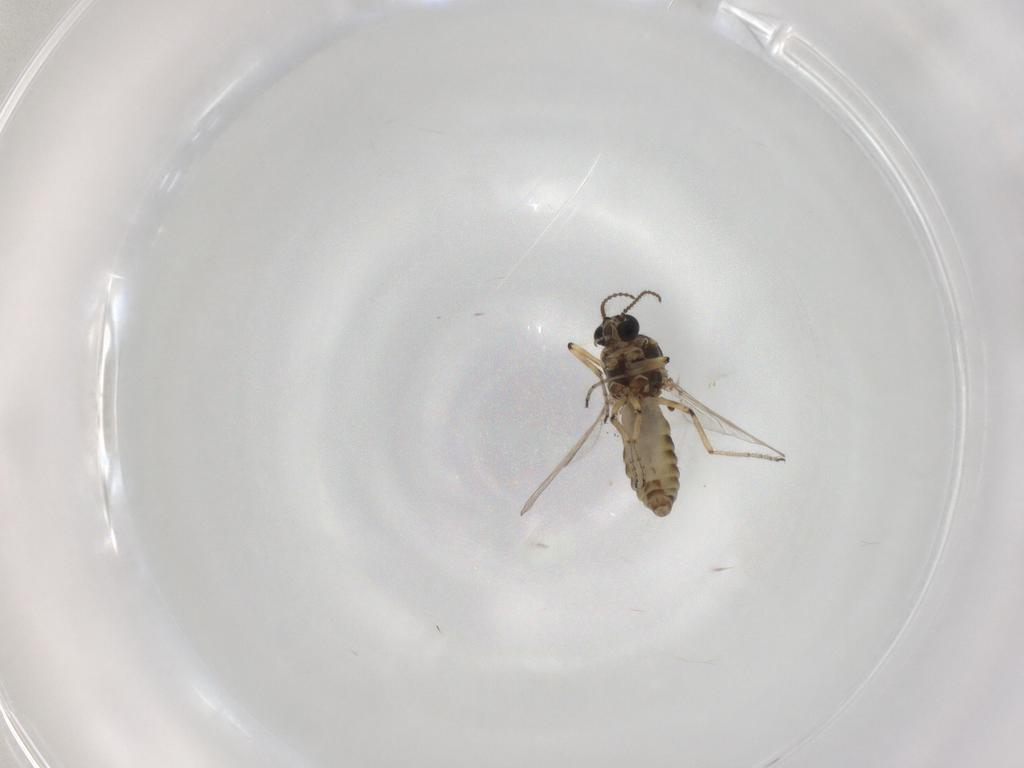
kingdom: Animalia
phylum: Arthropoda
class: Insecta
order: Diptera
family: Ceratopogonidae
